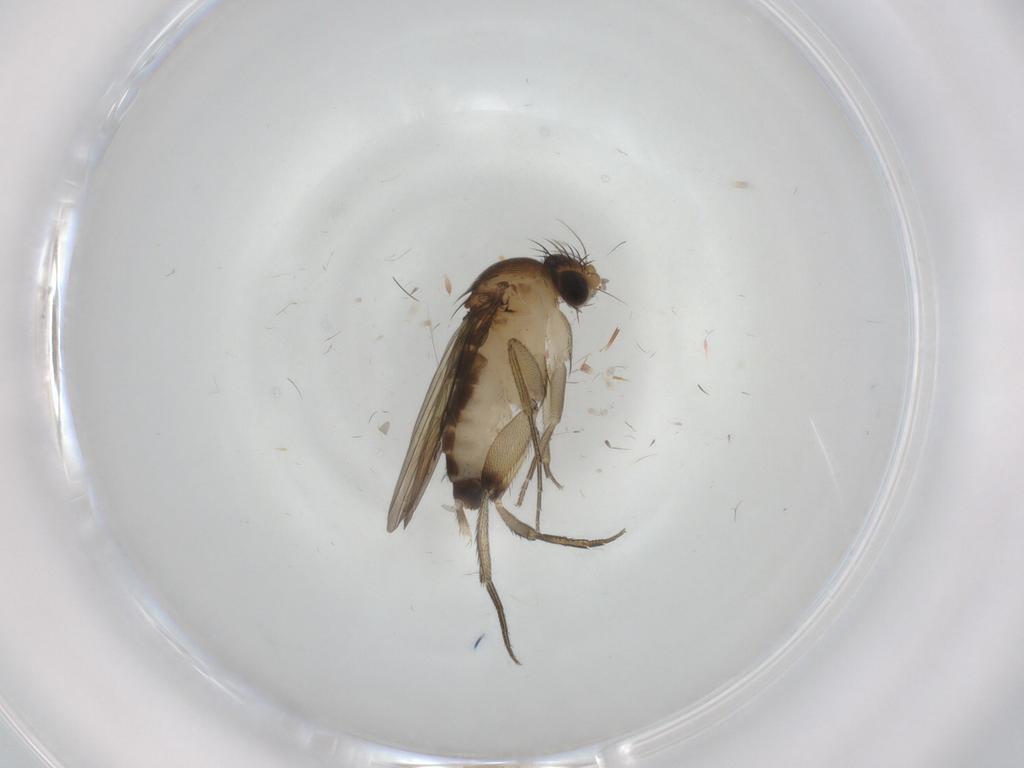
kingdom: Animalia
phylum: Arthropoda
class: Insecta
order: Diptera
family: Phoridae
